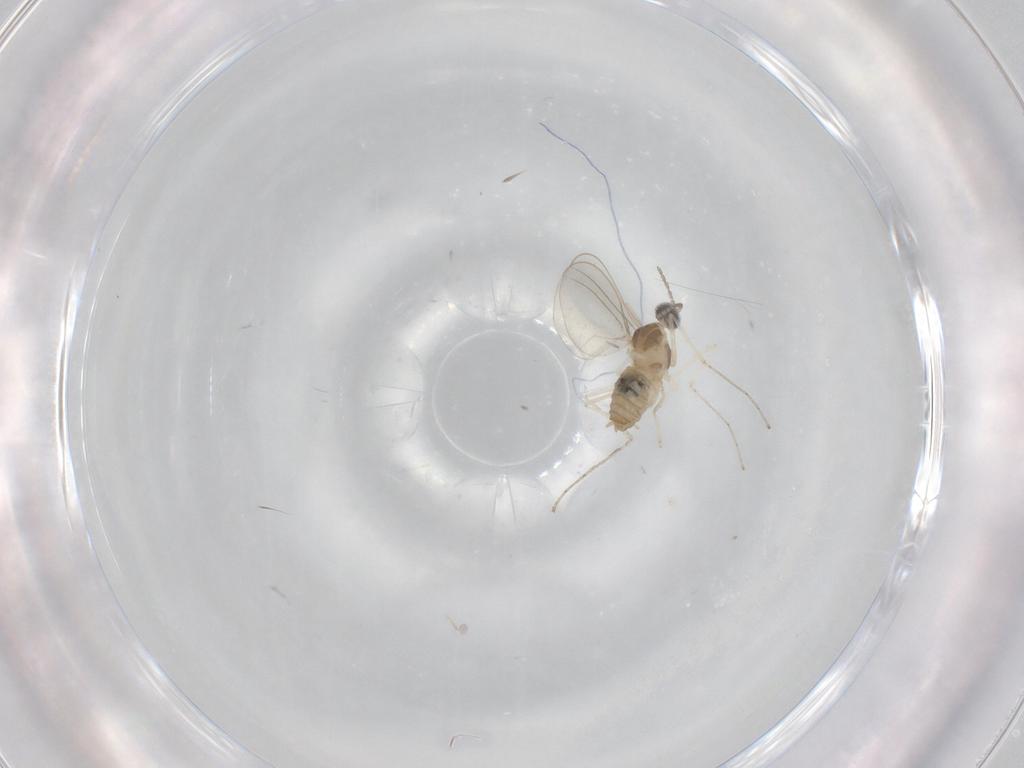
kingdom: Animalia
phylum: Arthropoda
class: Insecta
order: Diptera
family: Cecidomyiidae
